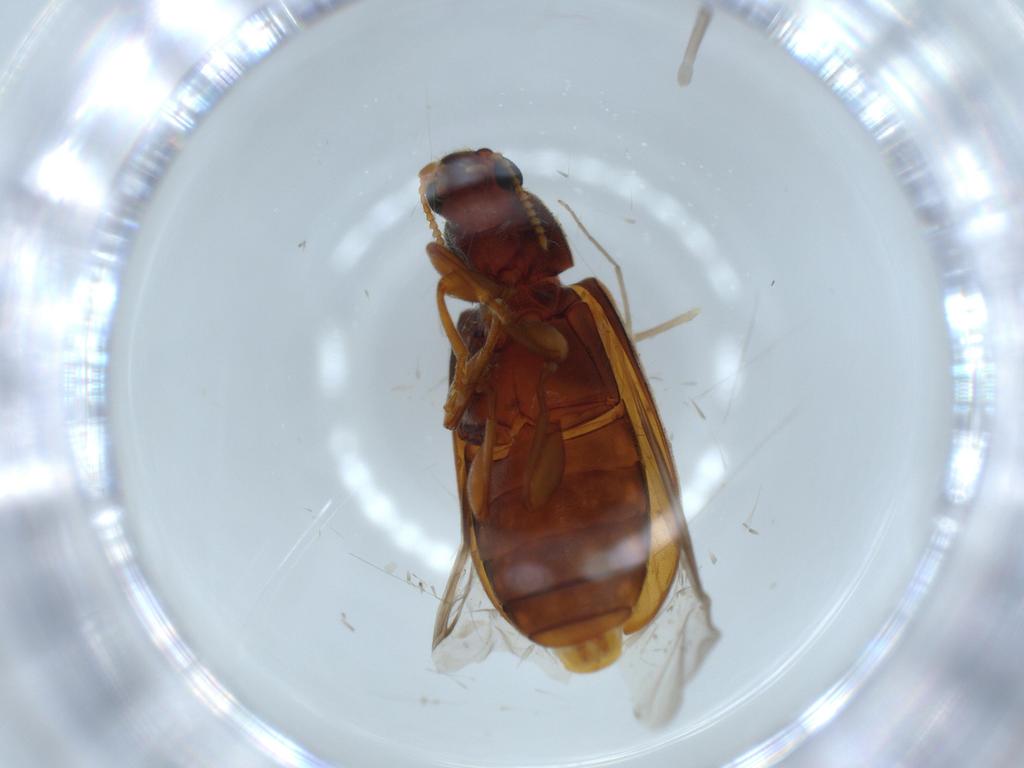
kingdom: Animalia
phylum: Arthropoda
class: Insecta
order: Coleoptera
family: Mycteridae
